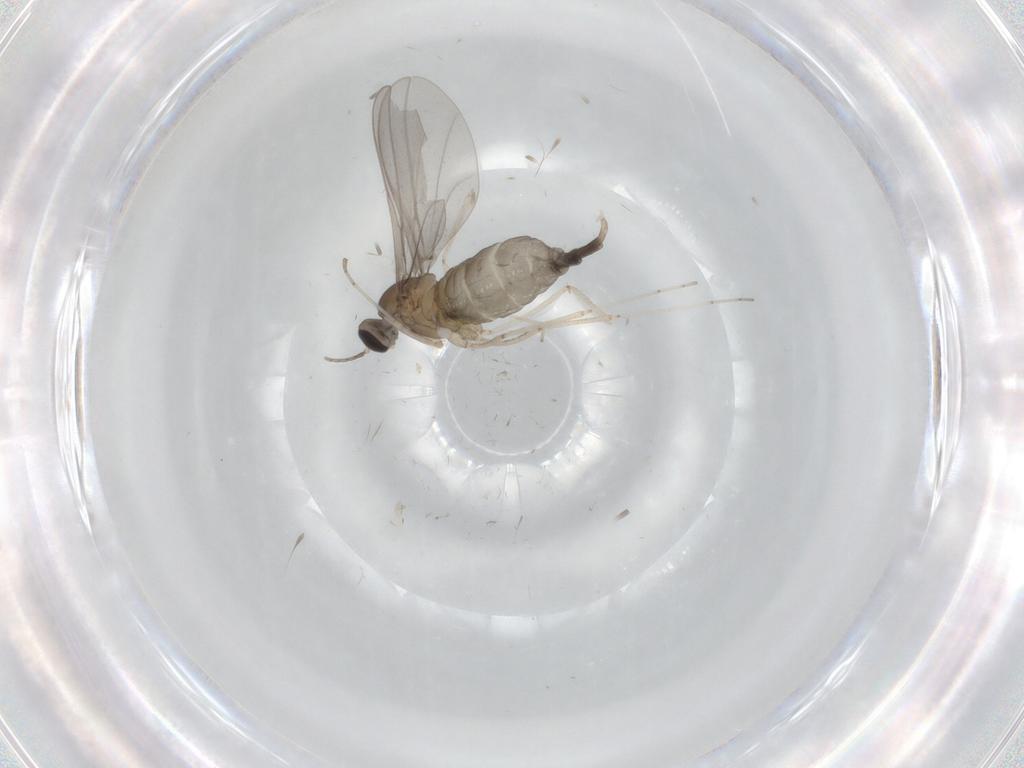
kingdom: Animalia
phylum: Arthropoda
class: Insecta
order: Diptera
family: Cecidomyiidae
